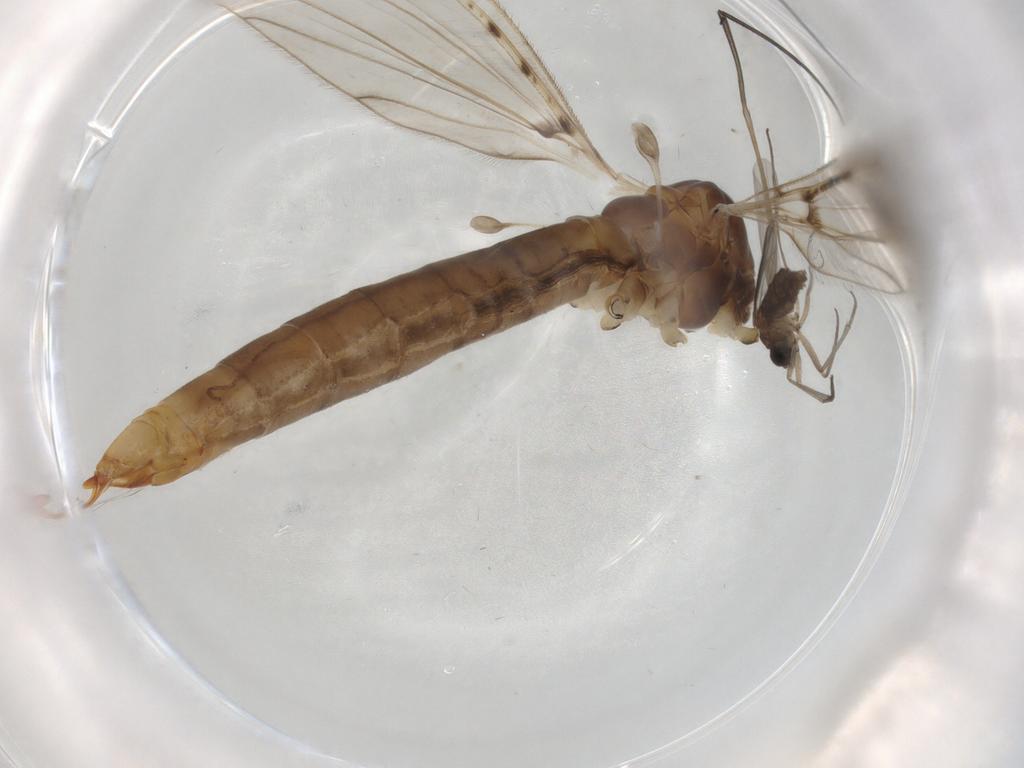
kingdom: Animalia
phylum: Arthropoda
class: Insecta
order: Diptera
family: Sciaridae
